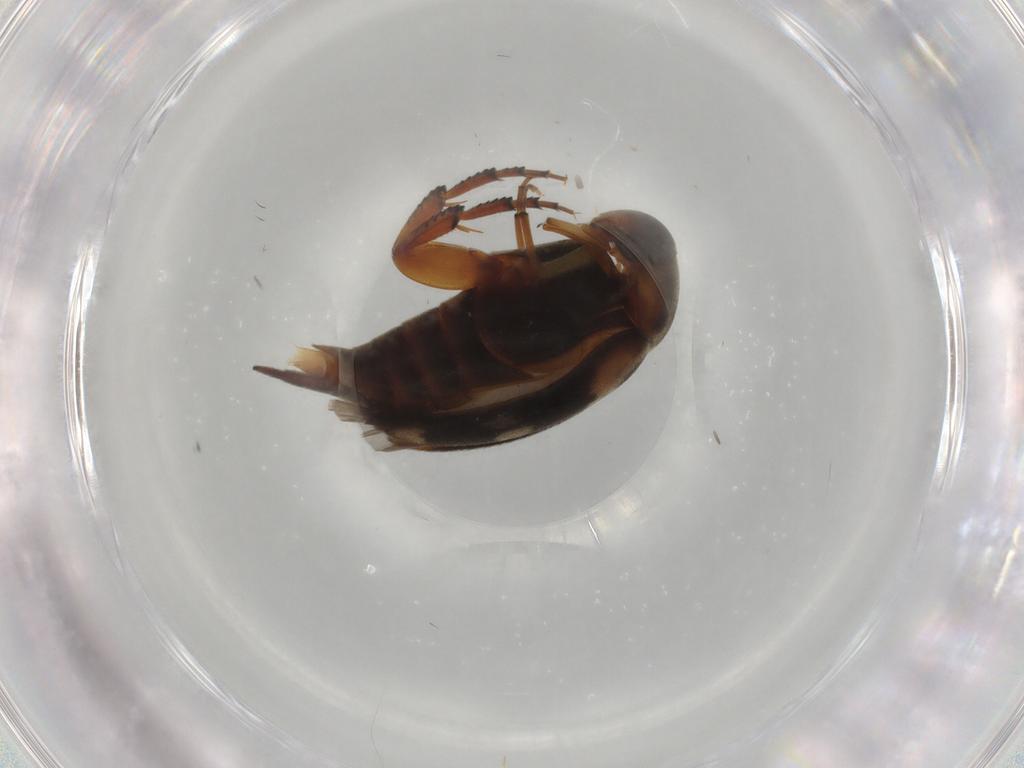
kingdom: Animalia
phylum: Arthropoda
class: Insecta
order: Coleoptera
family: Mordellidae
